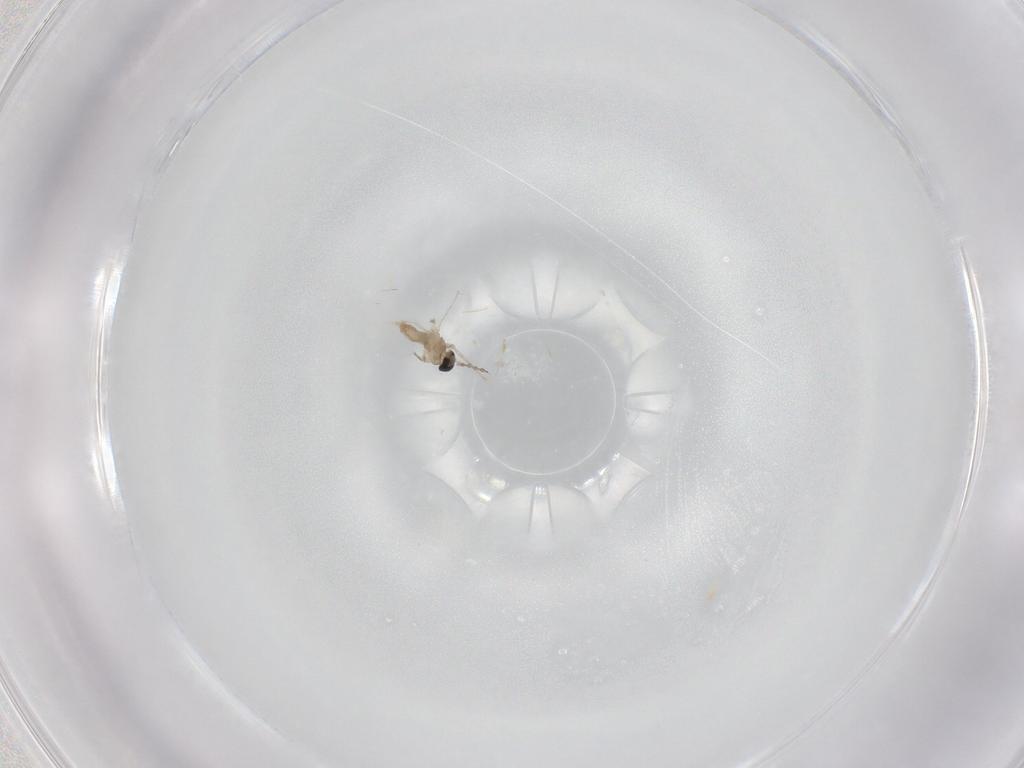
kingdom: Animalia
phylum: Arthropoda
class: Insecta
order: Diptera
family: Cecidomyiidae
